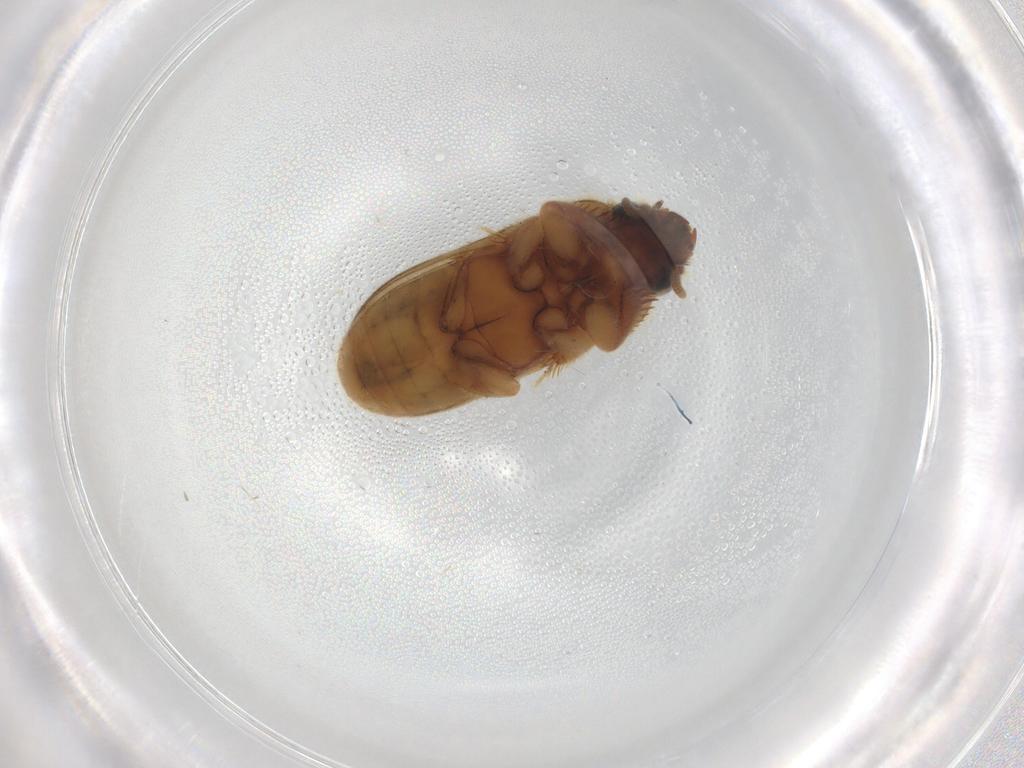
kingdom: Animalia
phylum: Arthropoda
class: Insecta
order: Coleoptera
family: Heteroceridae
